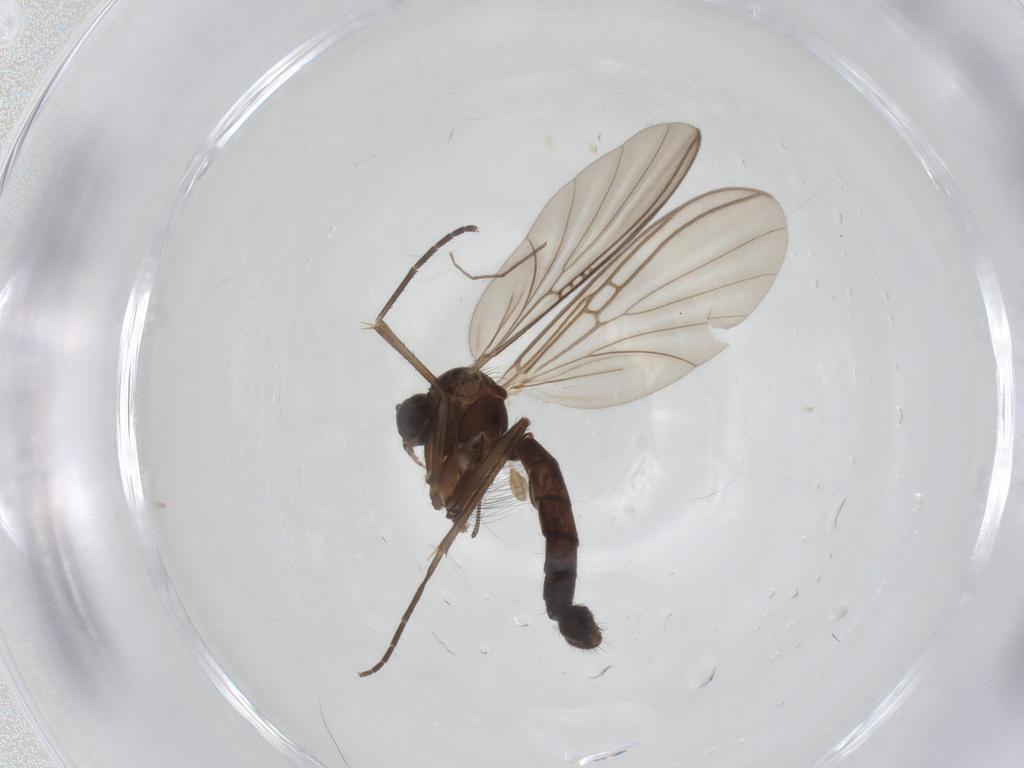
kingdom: Animalia
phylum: Arthropoda
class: Insecta
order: Diptera
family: Mycetophilidae
